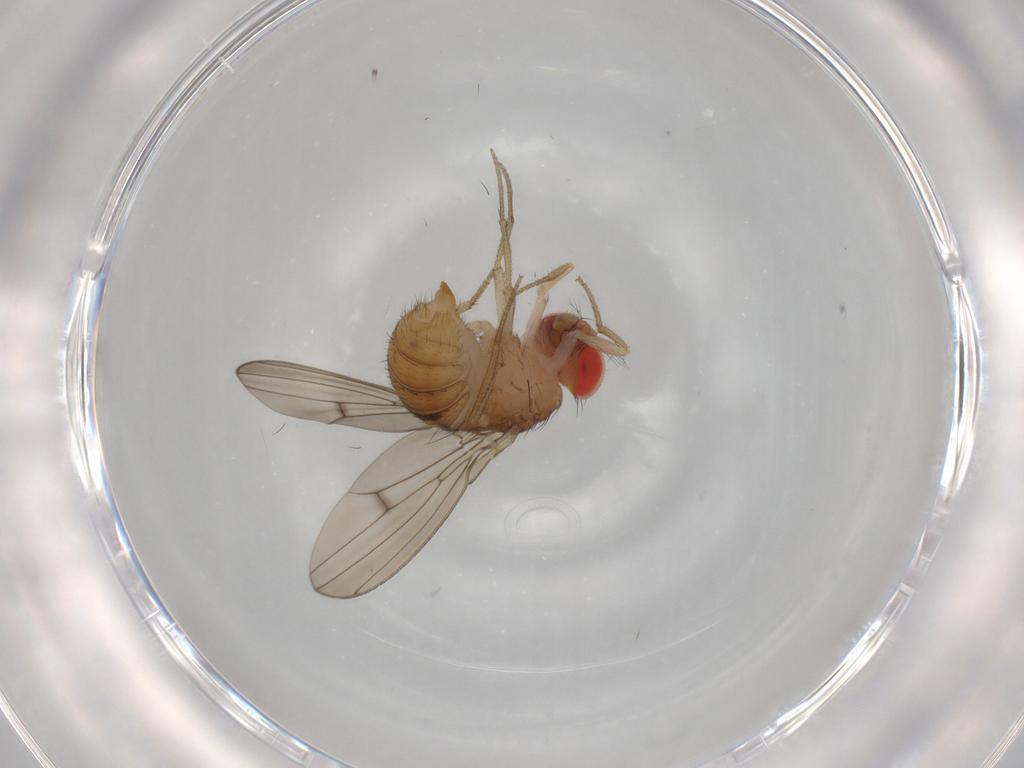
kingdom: Animalia
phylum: Arthropoda
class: Insecta
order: Diptera
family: Drosophilidae
